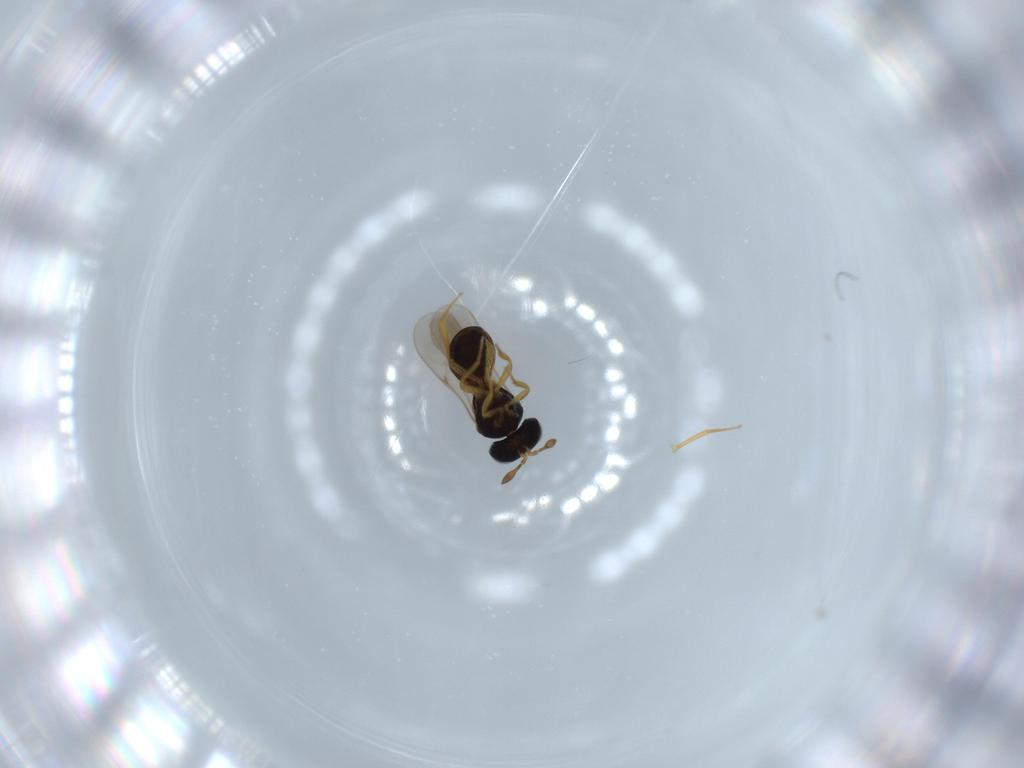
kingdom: Animalia
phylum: Arthropoda
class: Insecta
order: Hymenoptera
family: Scelionidae
